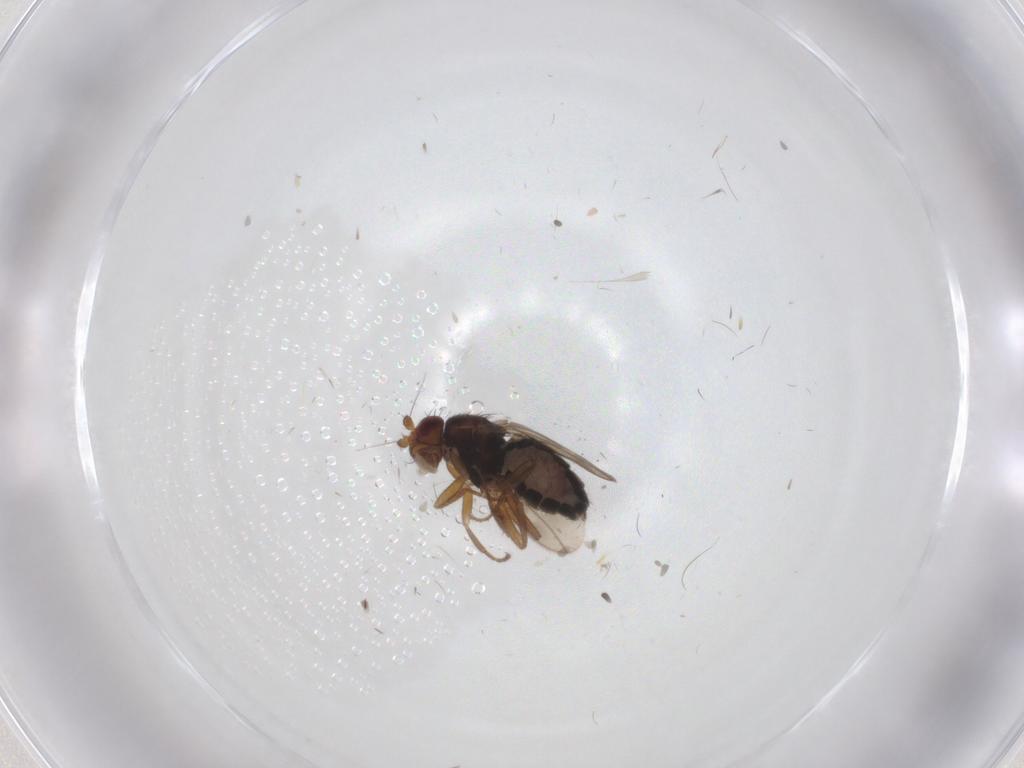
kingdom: Animalia
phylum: Arthropoda
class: Insecta
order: Diptera
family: Sphaeroceridae
